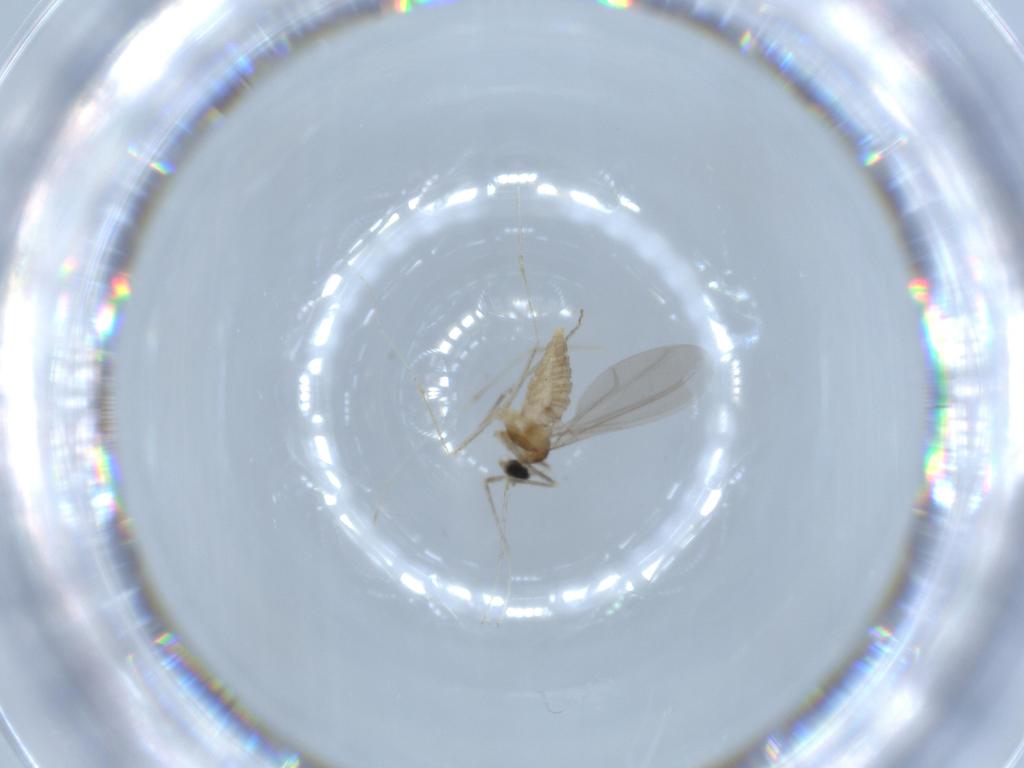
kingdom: Animalia
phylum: Arthropoda
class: Insecta
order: Diptera
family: Cecidomyiidae
